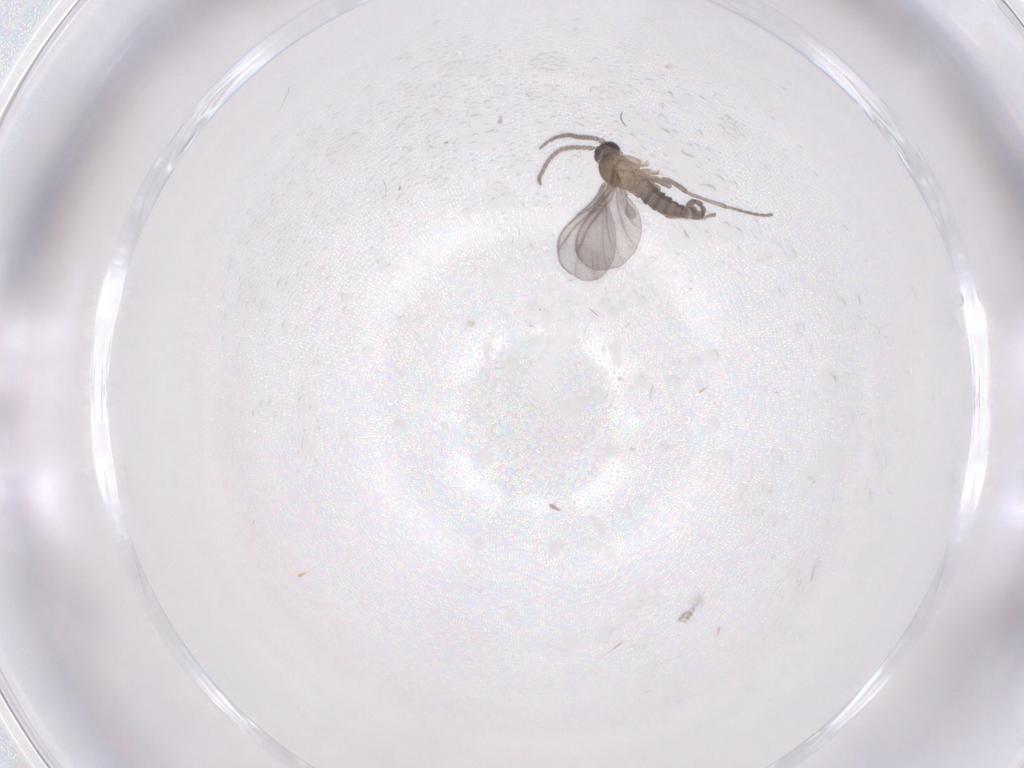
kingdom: Animalia
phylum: Arthropoda
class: Insecta
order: Diptera
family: Sciaridae
